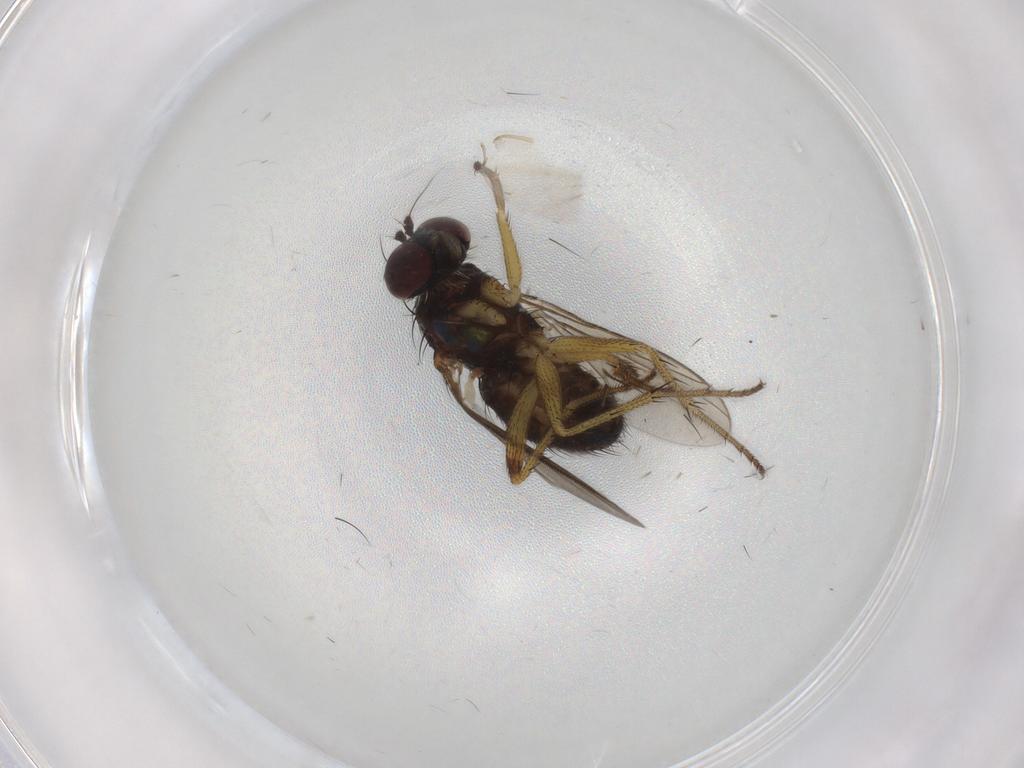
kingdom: Animalia
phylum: Arthropoda
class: Insecta
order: Diptera
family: Dolichopodidae
